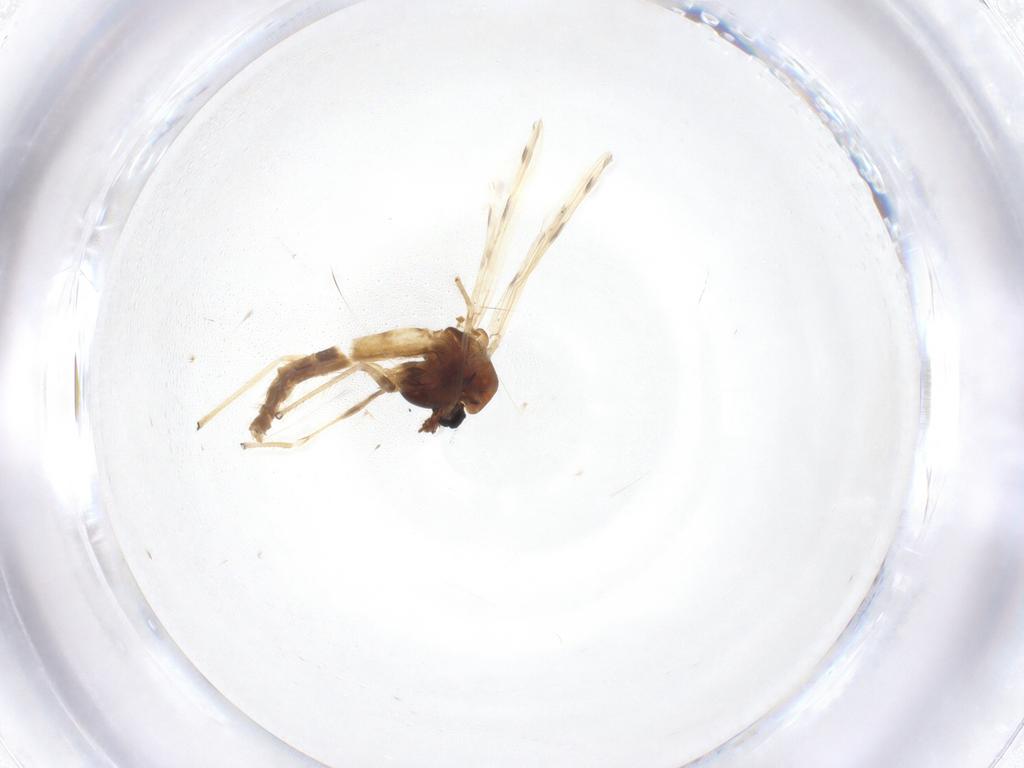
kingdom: Animalia
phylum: Arthropoda
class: Insecta
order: Diptera
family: Chironomidae
